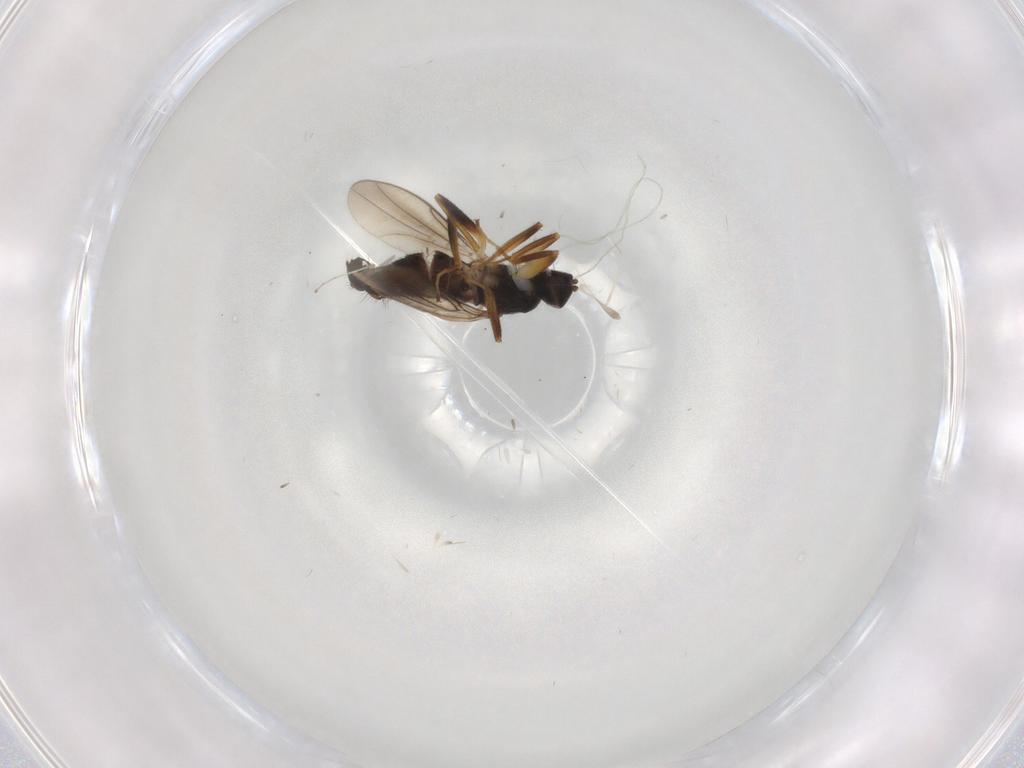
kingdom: Animalia
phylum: Arthropoda
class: Insecta
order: Diptera
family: Hybotidae
